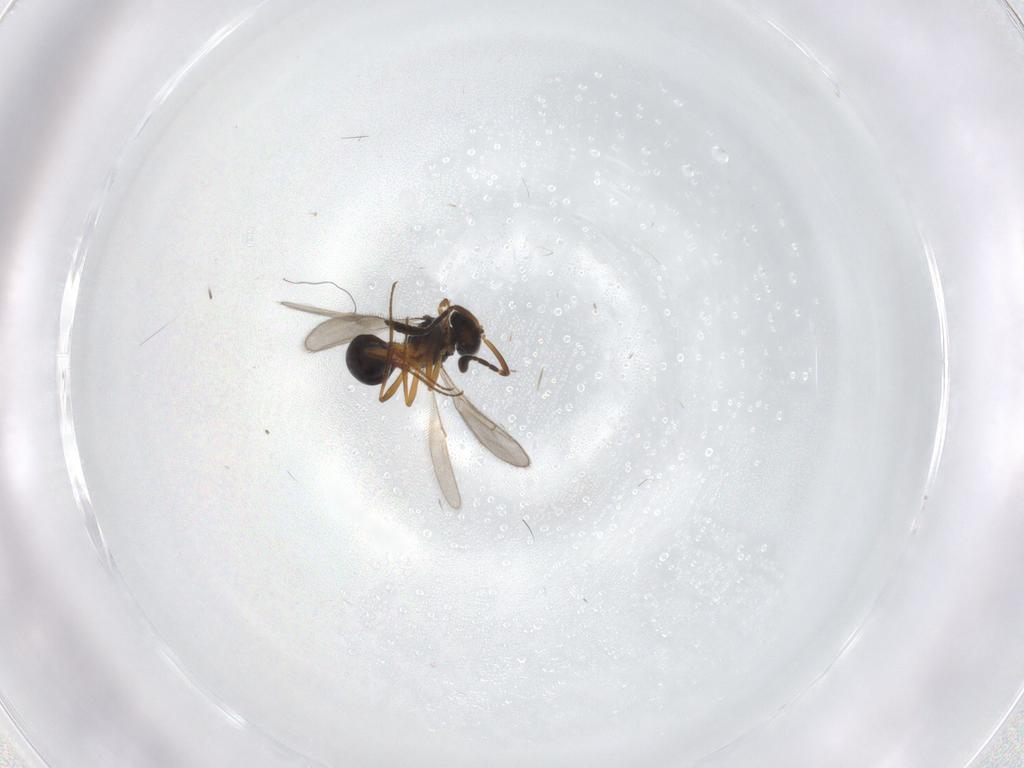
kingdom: Animalia
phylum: Arthropoda
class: Insecta
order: Hymenoptera
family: Scelionidae
